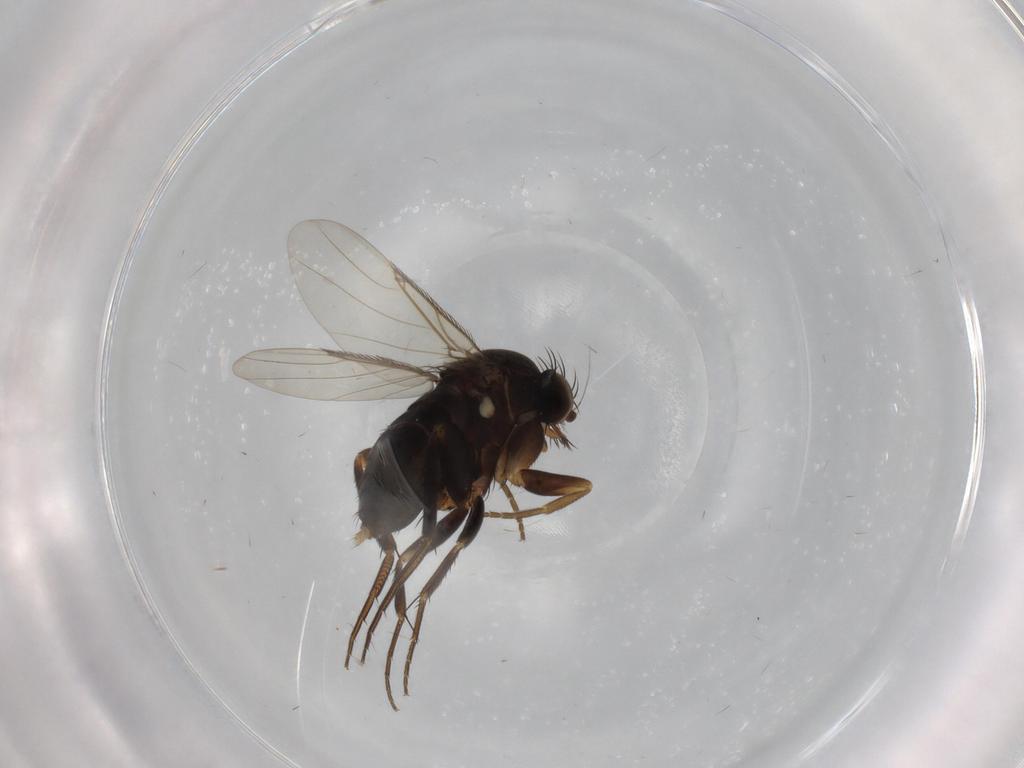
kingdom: Animalia
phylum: Arthropoda
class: Insecta
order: Diptera
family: Phoridae
